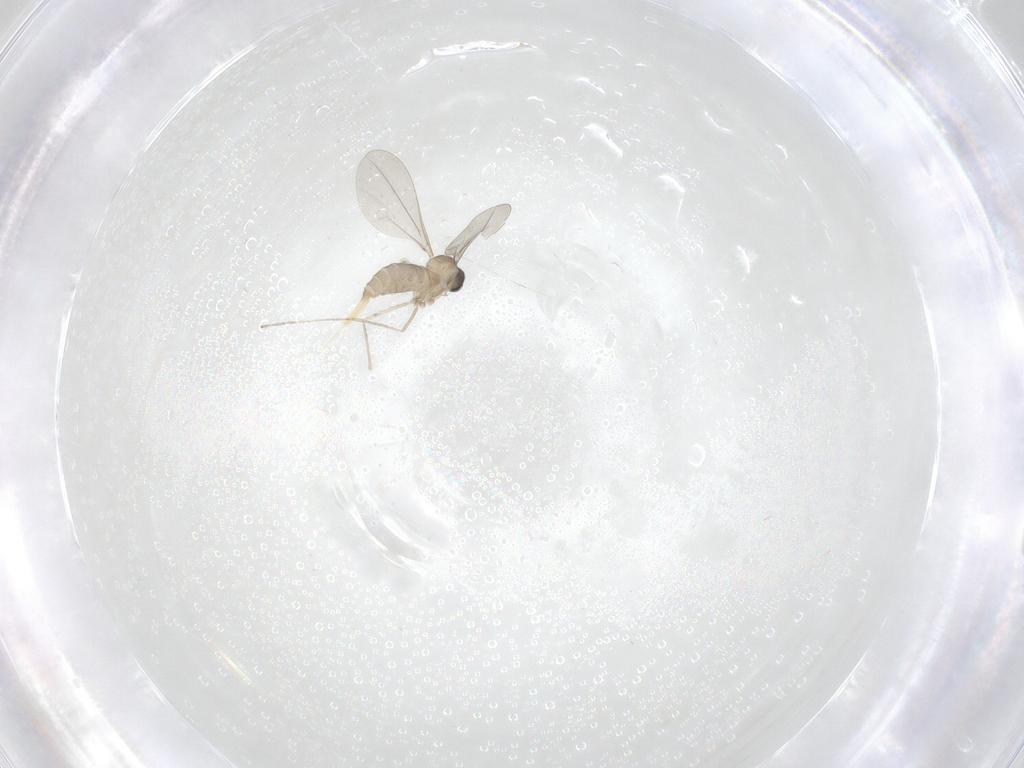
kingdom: Animalia
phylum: Arthropoda
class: Insecta
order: Diptera
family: Cecidomyiidae
